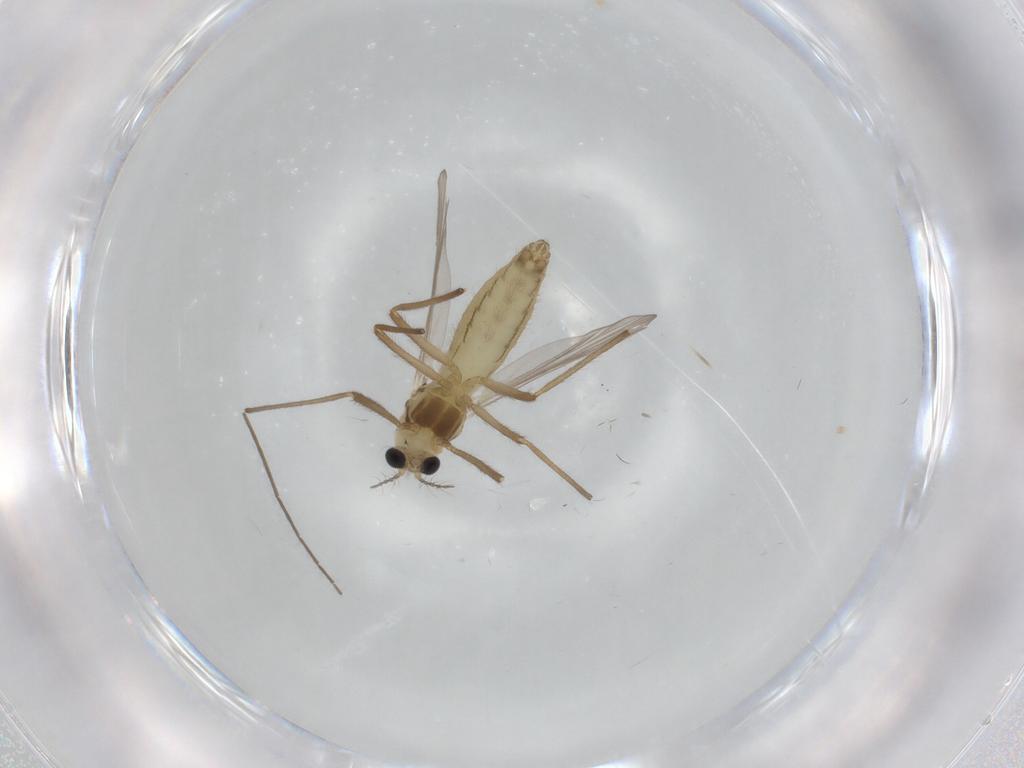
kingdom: Animalia
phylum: Arthropoda
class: Insecta
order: Diptera
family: Chironomidae
